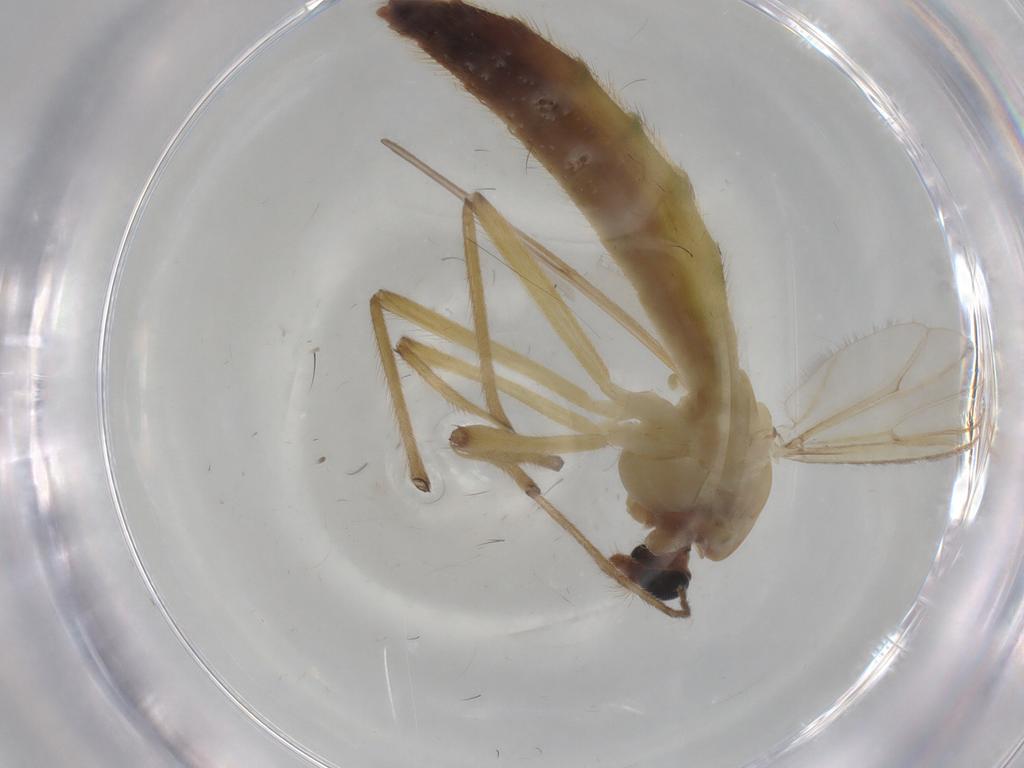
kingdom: Animalia
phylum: Arthropoda
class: Insecta
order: Diptera
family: Chironomidae
